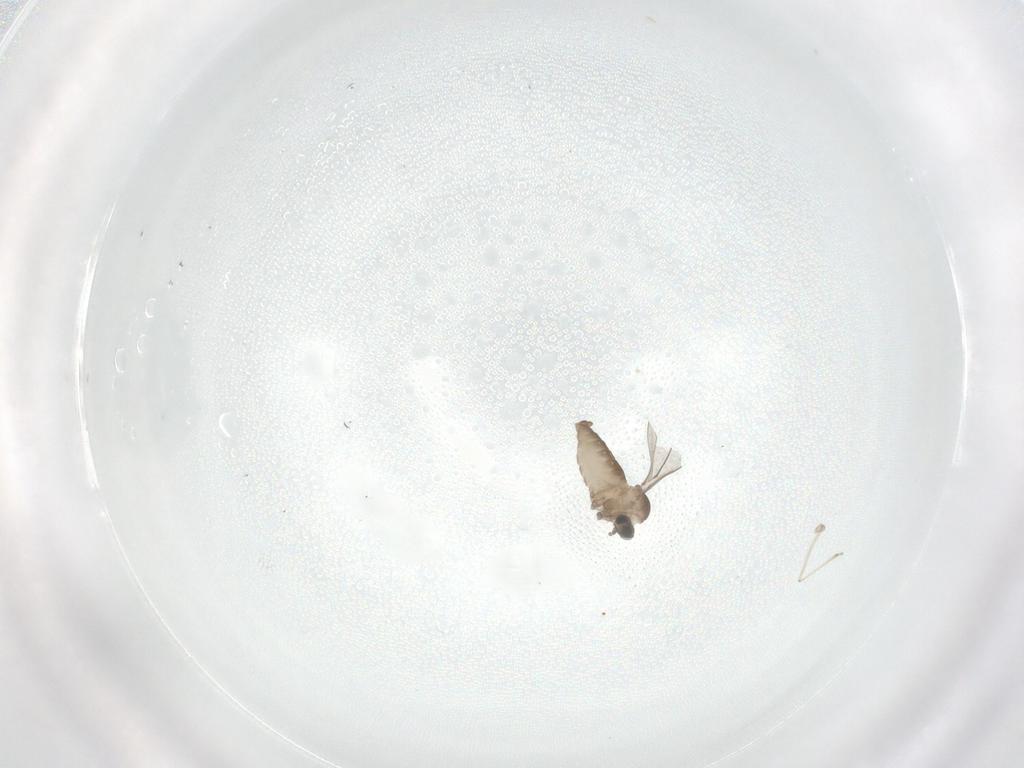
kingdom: Animalia
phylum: Arthropoda
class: Insecta
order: Diptera
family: Cecidomyiidae
